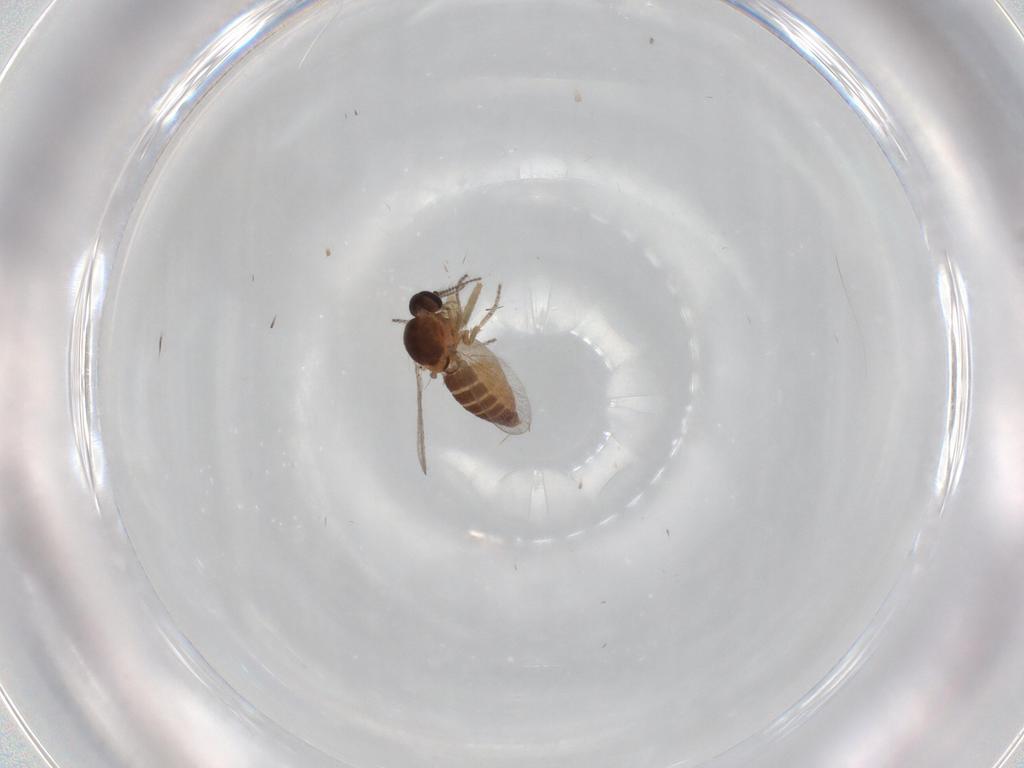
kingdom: Animalia
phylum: Arthropoda
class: Insecta
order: Diptera
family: Ceratopogonidae
